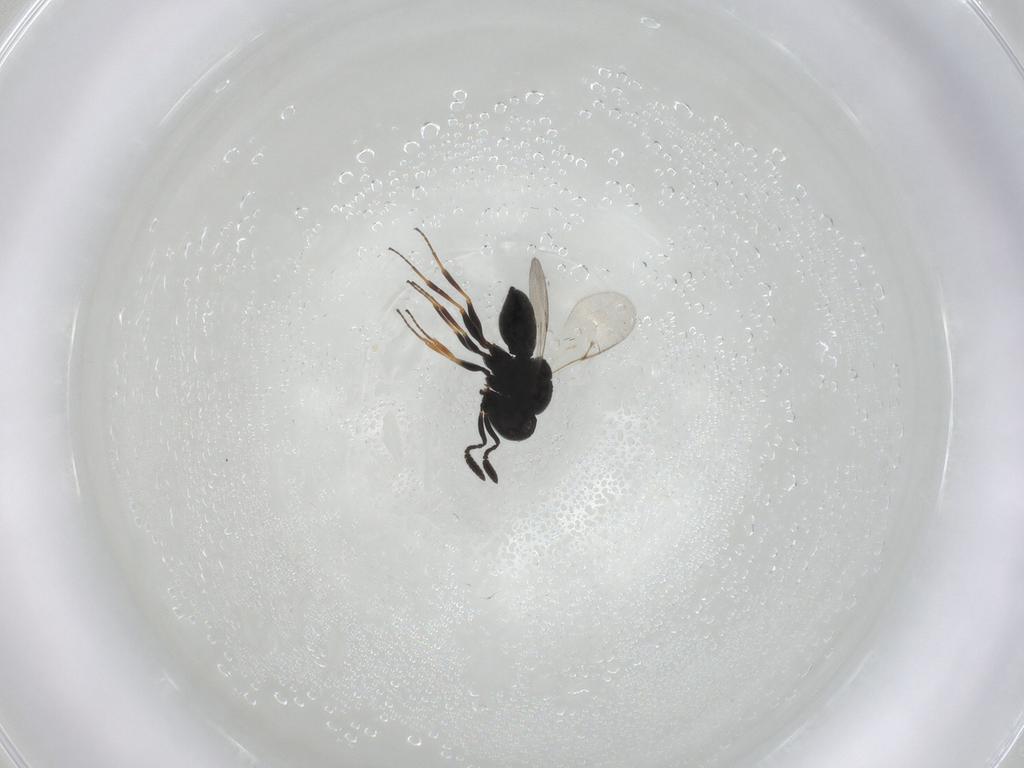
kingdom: Animalia
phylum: Arthropoda
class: Insecta
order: Hymenoptera
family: Scelionidae
